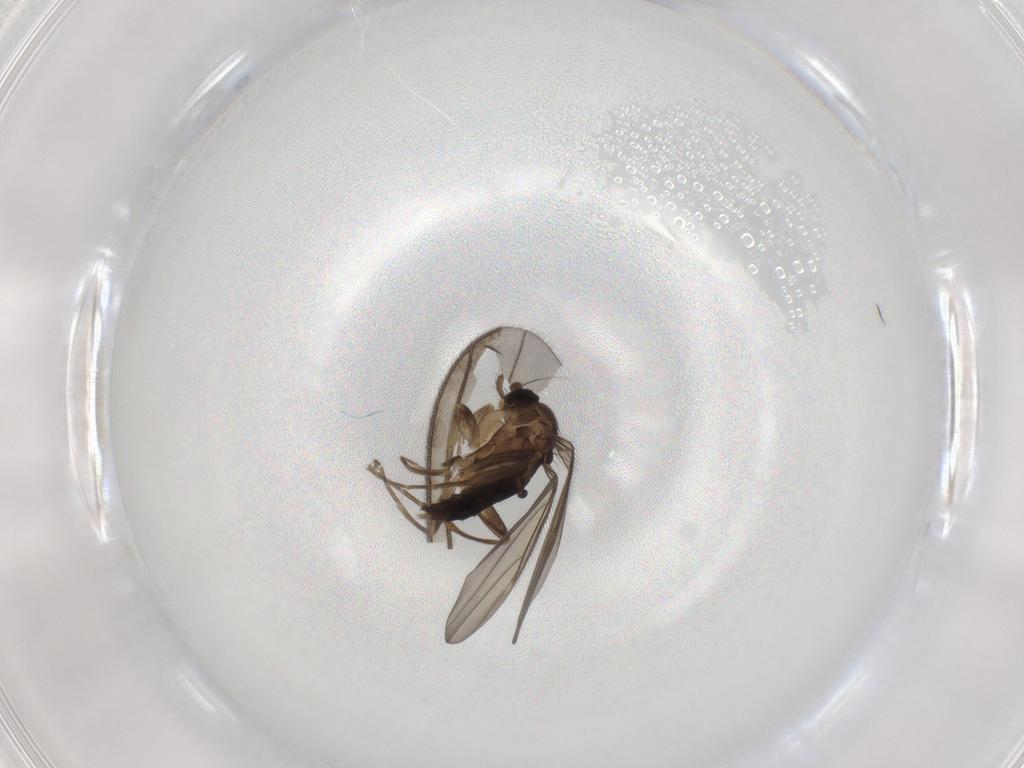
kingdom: Animalia
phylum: Arthropoda
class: Insecta
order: Diptera
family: Sciaridae
